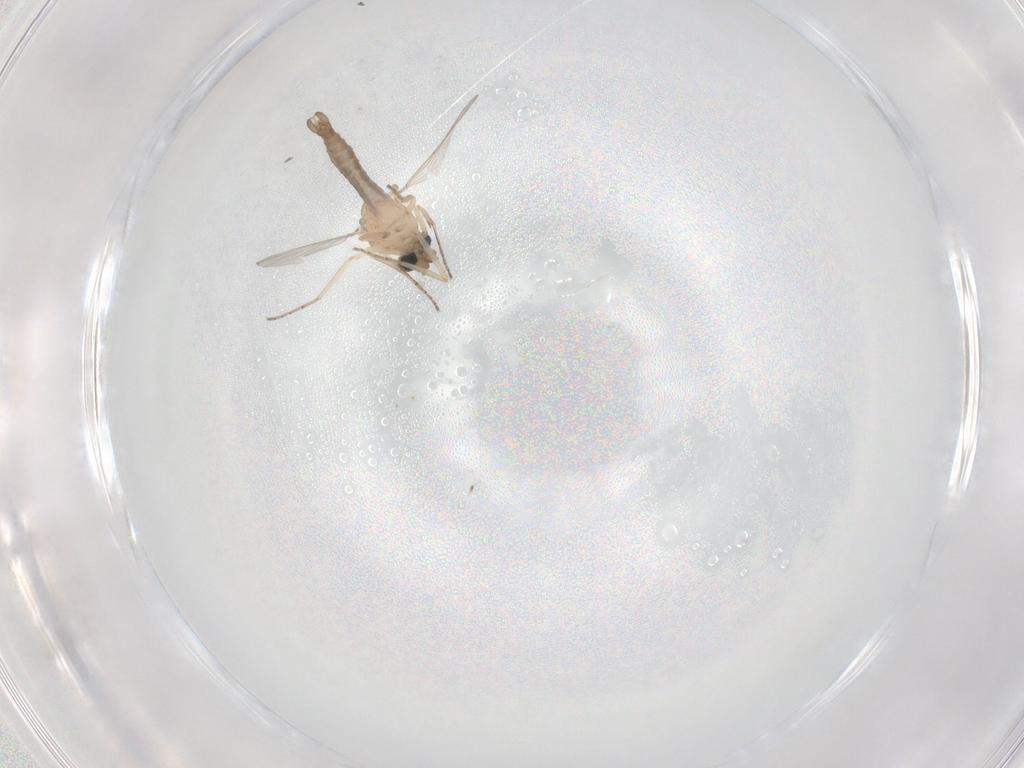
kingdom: Animalia
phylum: Arthropoda
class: Insecta
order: Diptera
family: Ceratopogonidae
